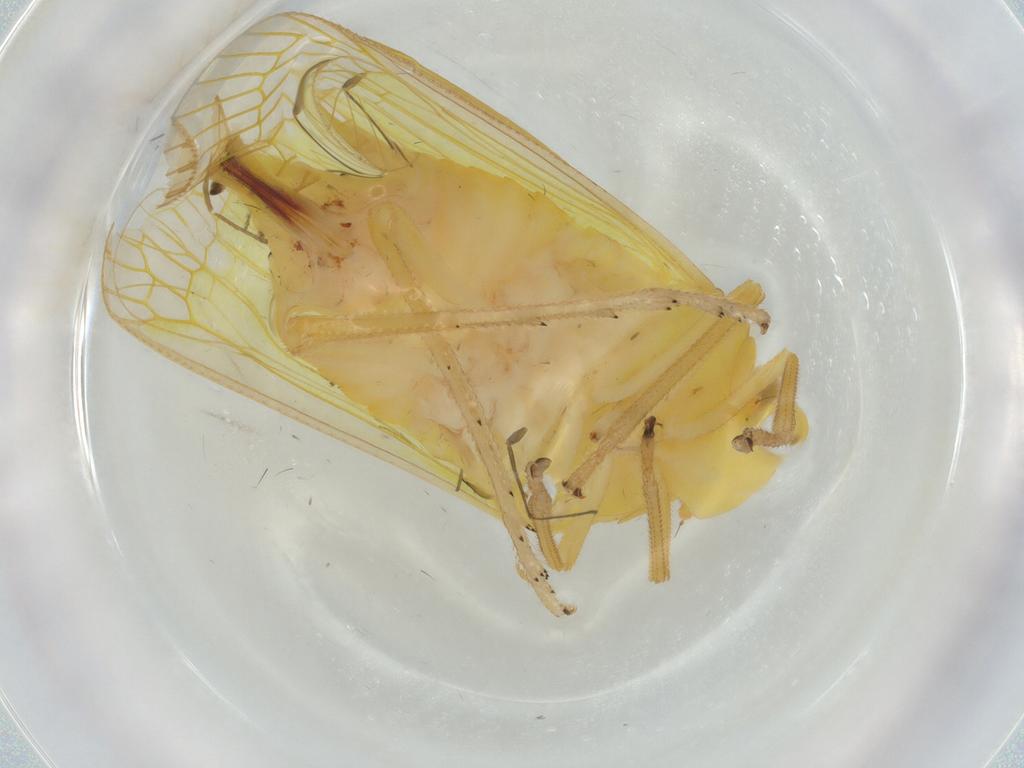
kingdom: Animalia
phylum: Arthropoda
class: Insecta
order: Hemiptera
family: Tropiduchidae
